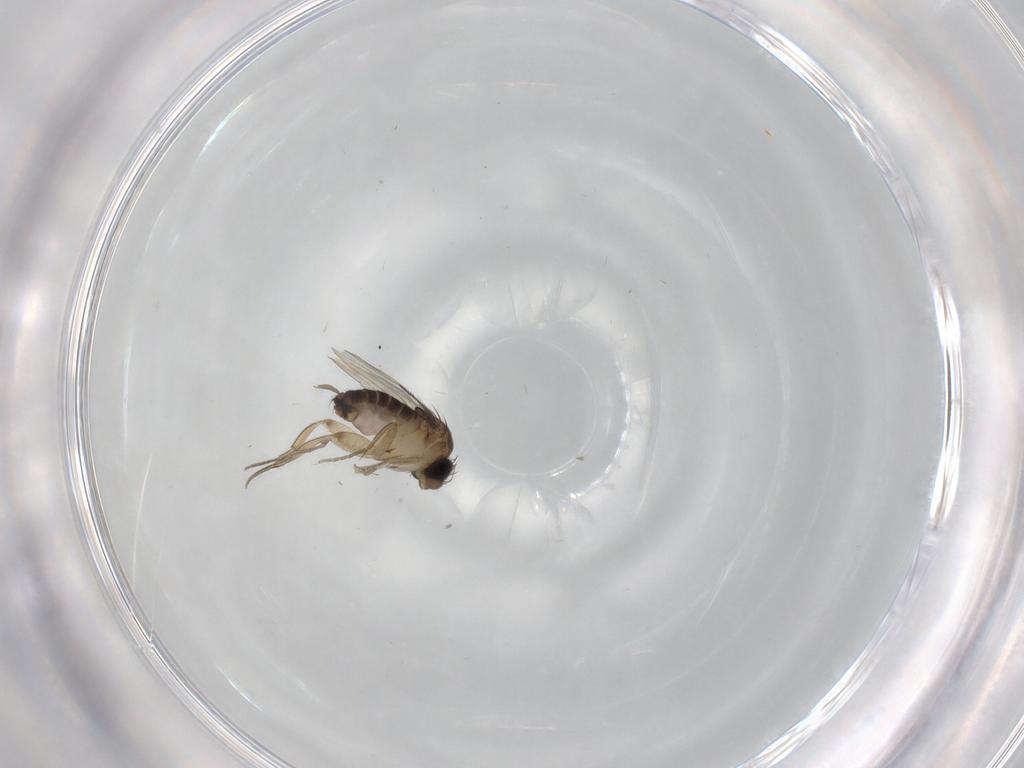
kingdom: Animalia
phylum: Arthropoda
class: Insecta
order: Diptera
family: Phoridae
